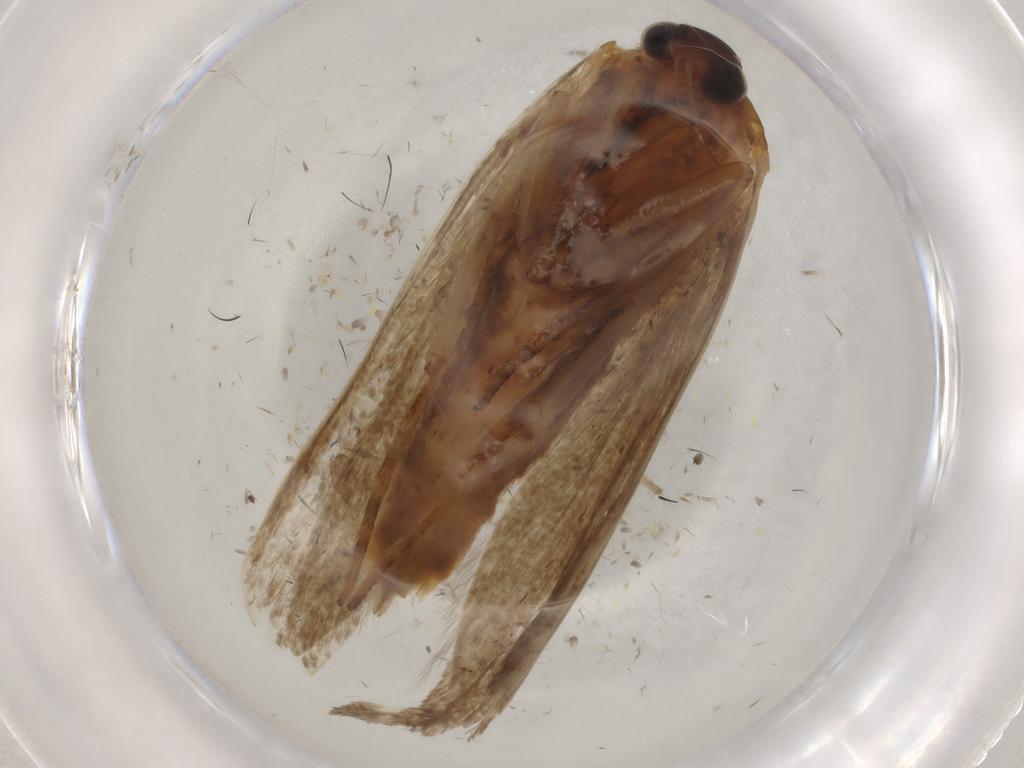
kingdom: Animalia
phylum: Arthropoda
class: Insecta
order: Lepidoptera
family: Blastobasidae
